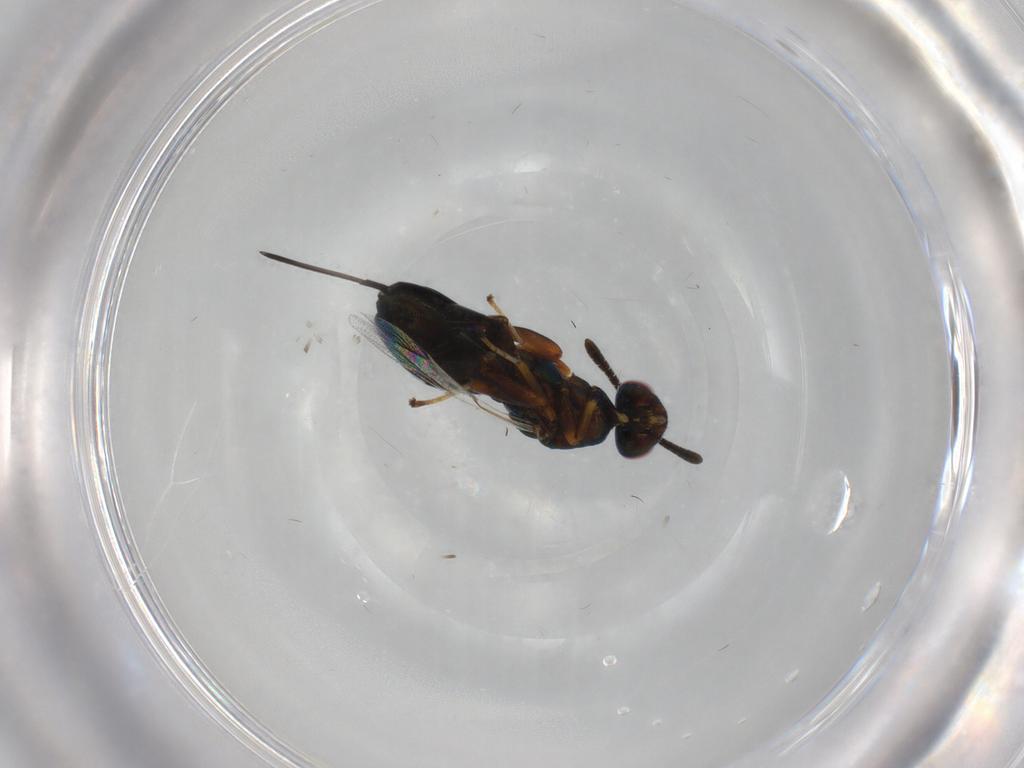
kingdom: Animalia
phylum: Arthropoda
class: Insecta
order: Hymenoptera
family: Torymidae
